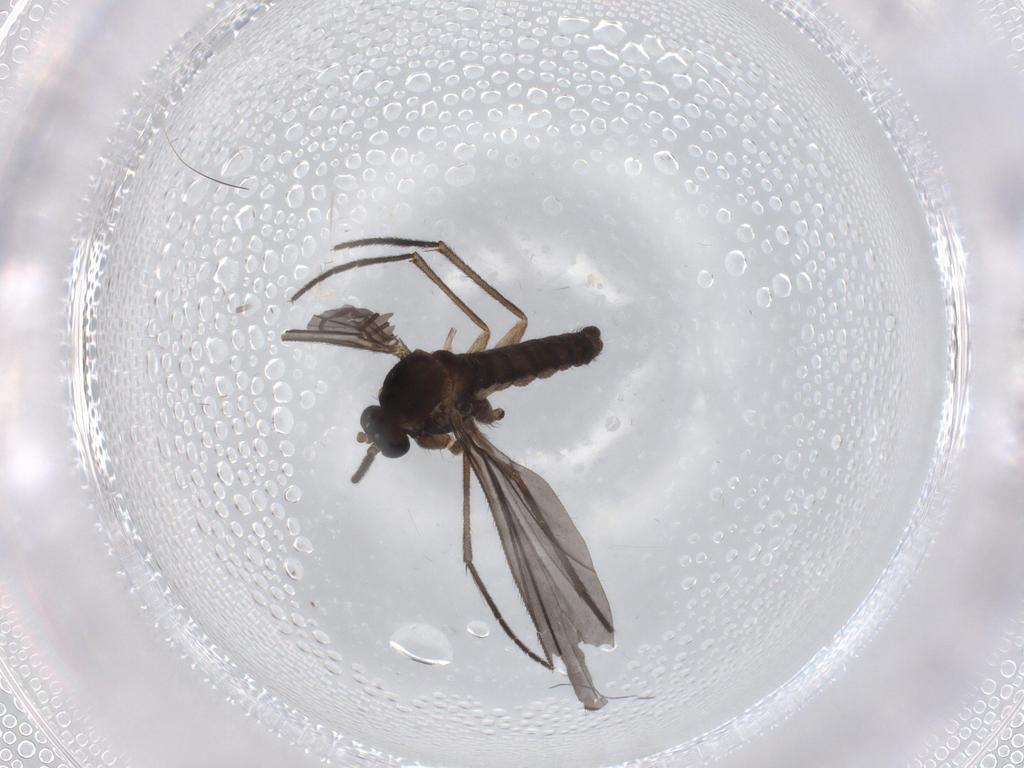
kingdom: Animalia
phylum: Arthropoda
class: Insecta
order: Diptera
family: Sciaridae
